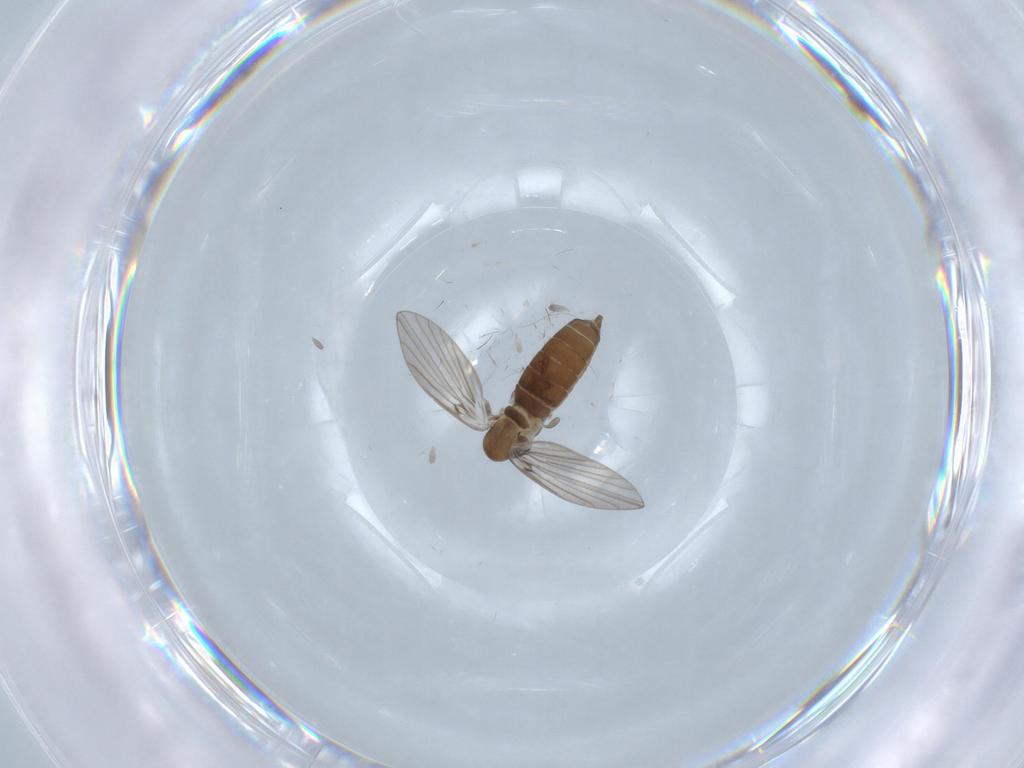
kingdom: Animalia
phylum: Arthropoda
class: Insecta
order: Diptera
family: Psychodidae
